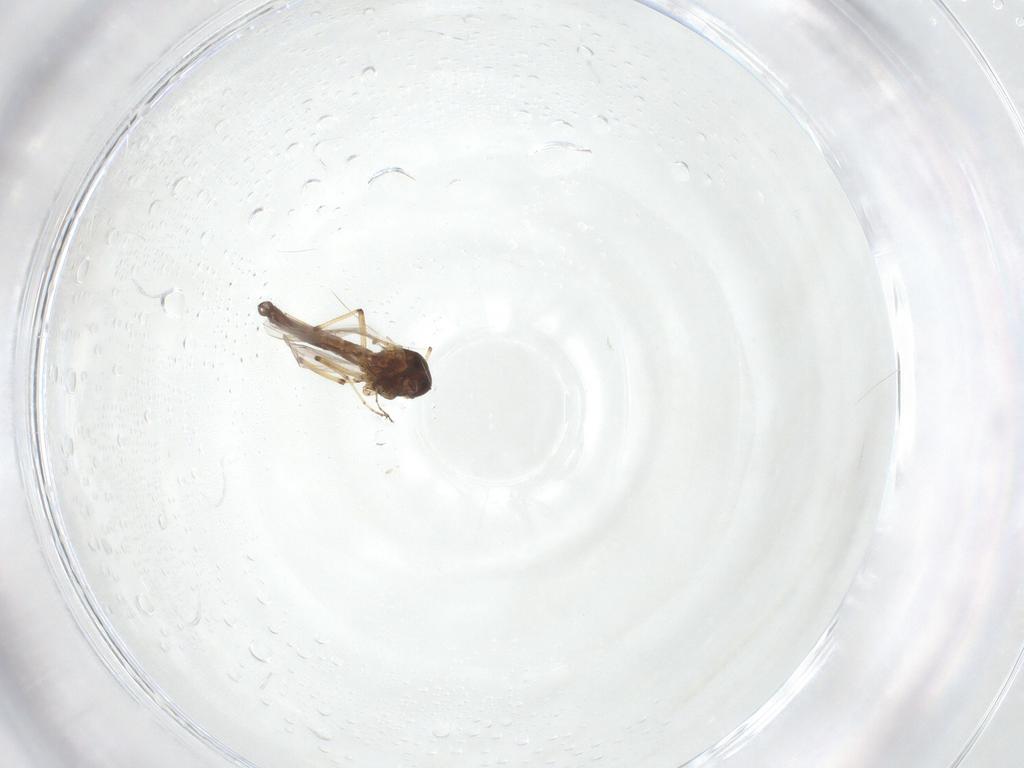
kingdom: Animalia
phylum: Arthropoda
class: Insecta
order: Diptera
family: Ceratopogonidae
